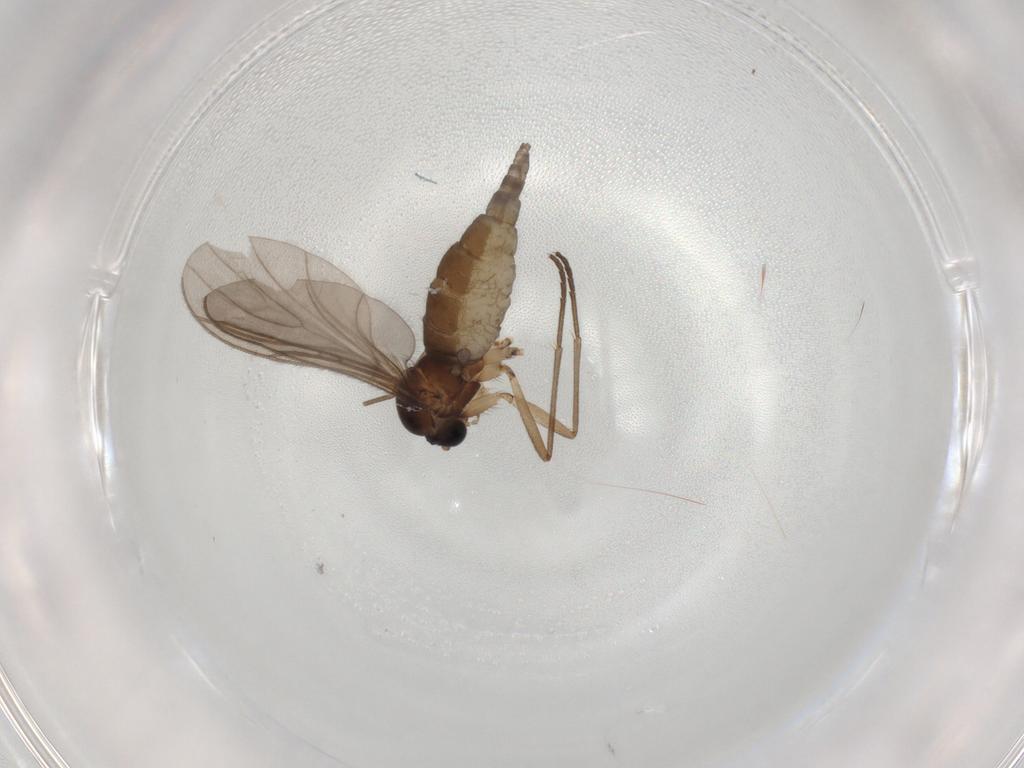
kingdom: Animalia
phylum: Arthropoda
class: Insecta
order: Diptera
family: Sciaridae
